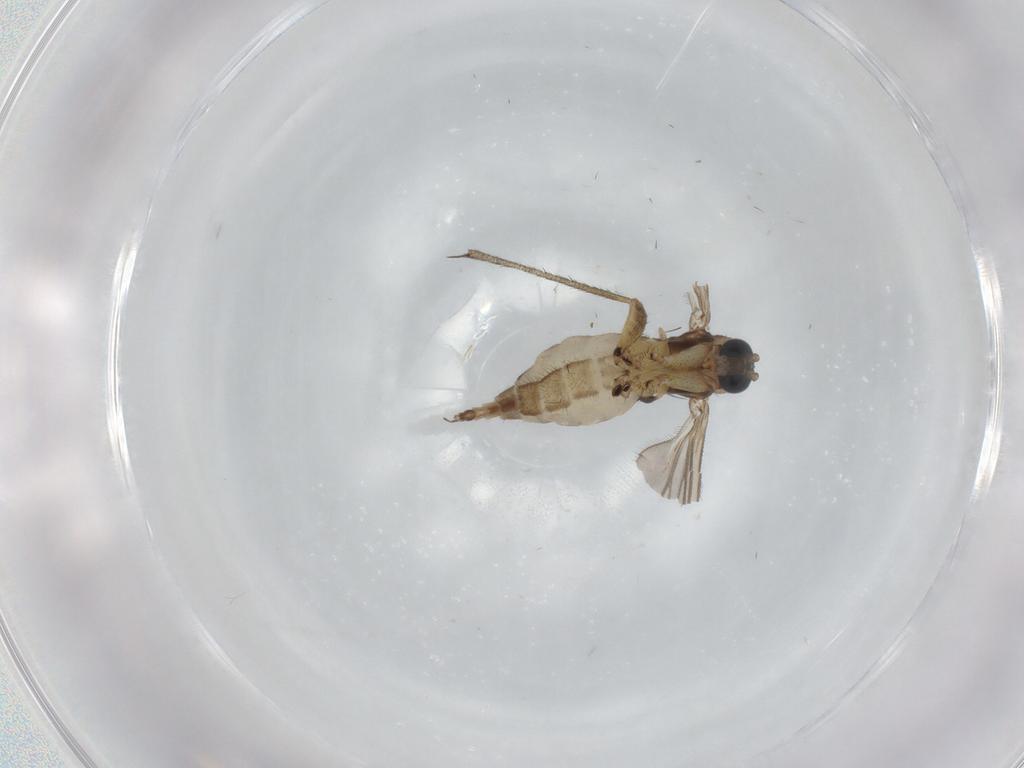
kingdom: Animalia
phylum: Arthropoda
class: Insecta
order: Diptera
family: Sciaridae
